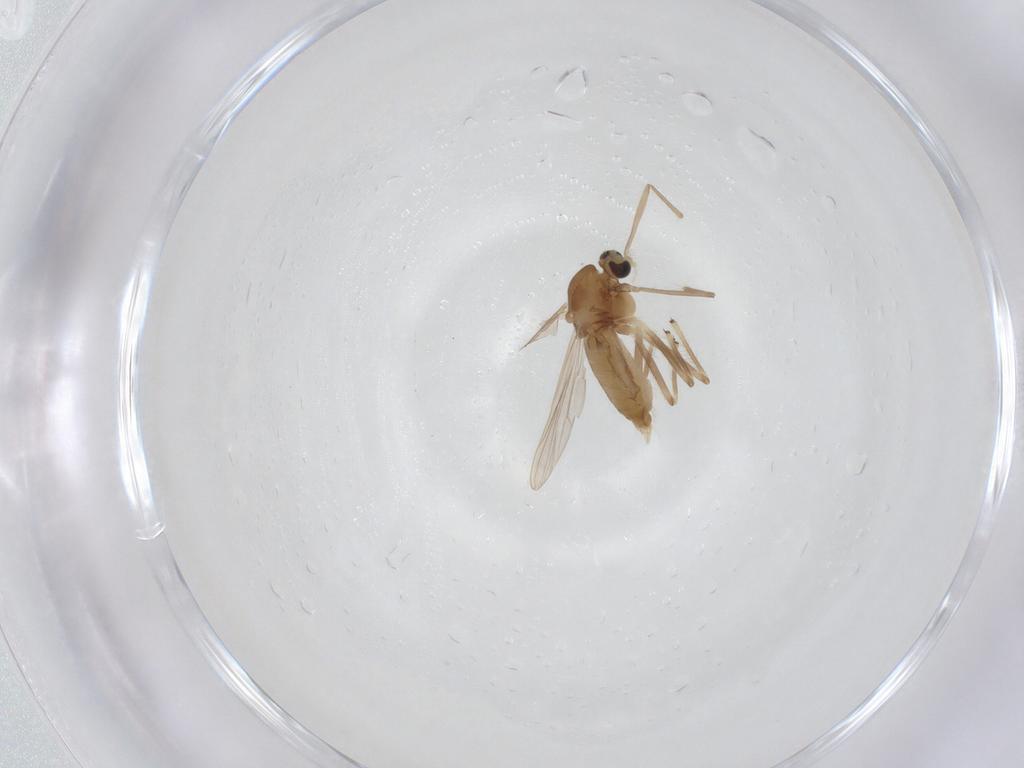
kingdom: Animalia
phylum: Arthropoda
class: Insecta
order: Diptera
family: Chironomidae
